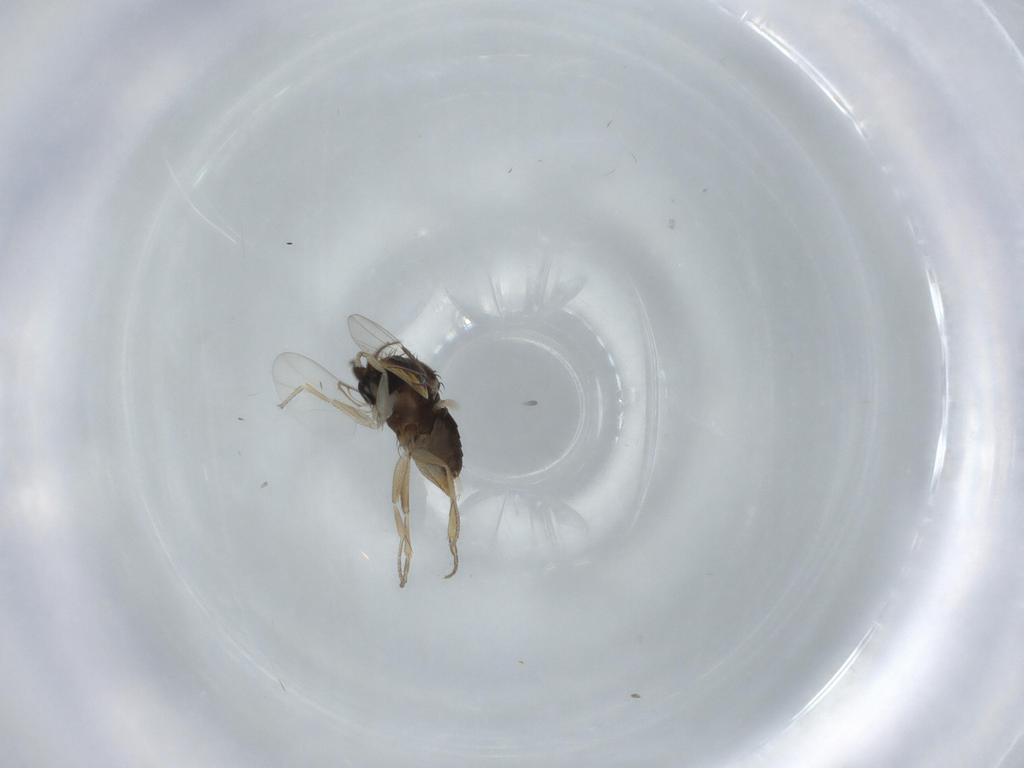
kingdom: Animalia
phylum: Arthropoda
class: Insecta
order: Diptera
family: Phoridae
